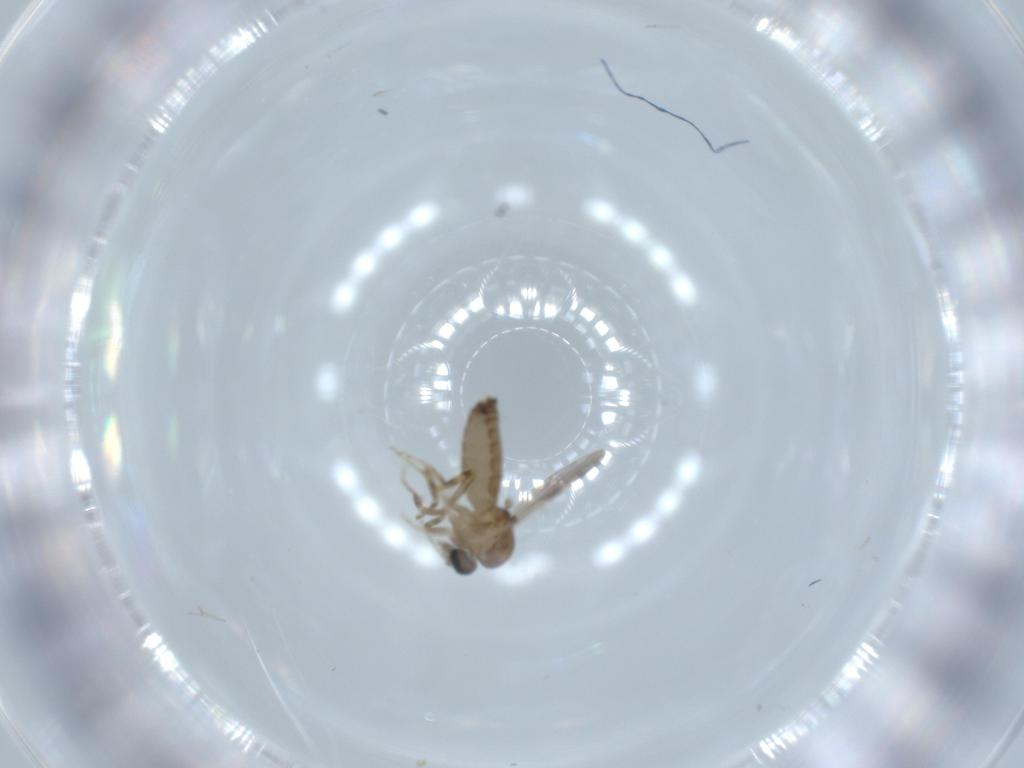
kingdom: Animalia
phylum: Arthropoda
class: Insecta
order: Diptera
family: Ceratopogonidae
